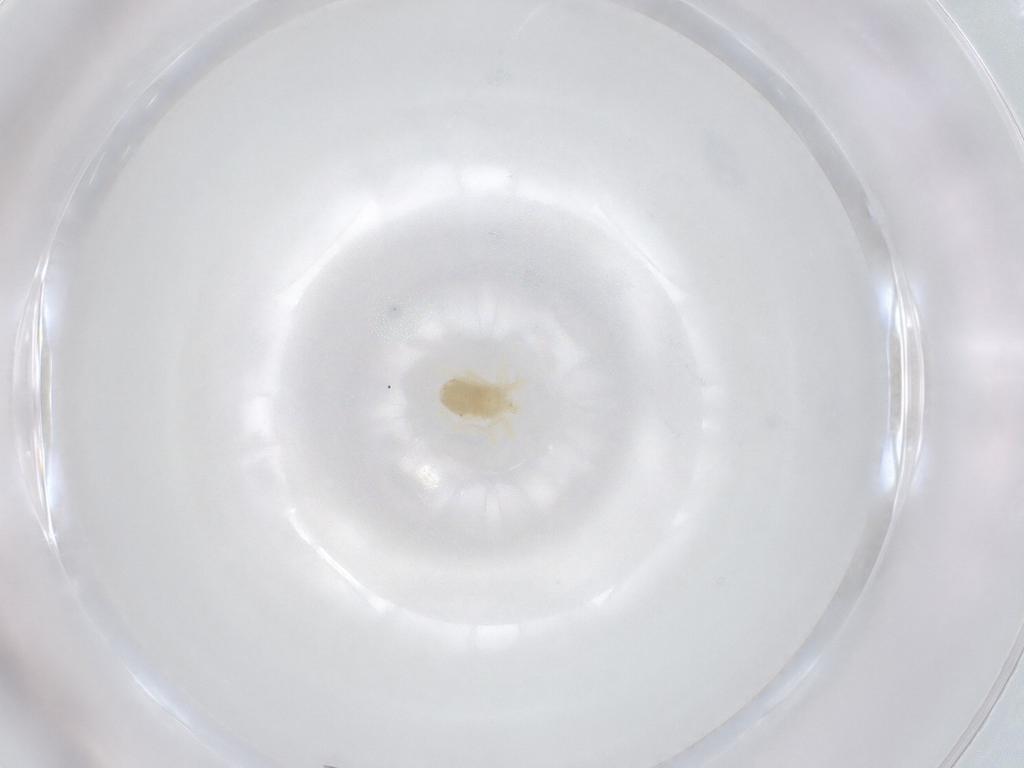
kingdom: Animalia
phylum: Arthropoda
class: Arachnida
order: Trombidiformes
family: Anystidae
